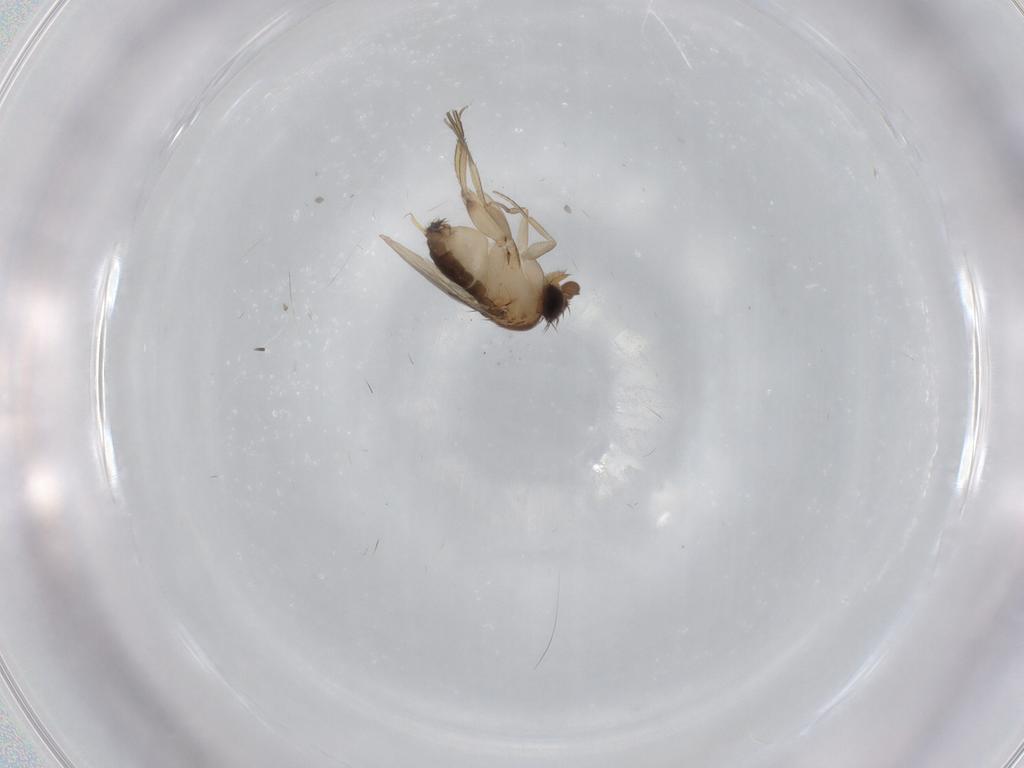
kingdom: Animalia
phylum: Arthropoda
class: Insecta
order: Diptera
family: Phoridae
